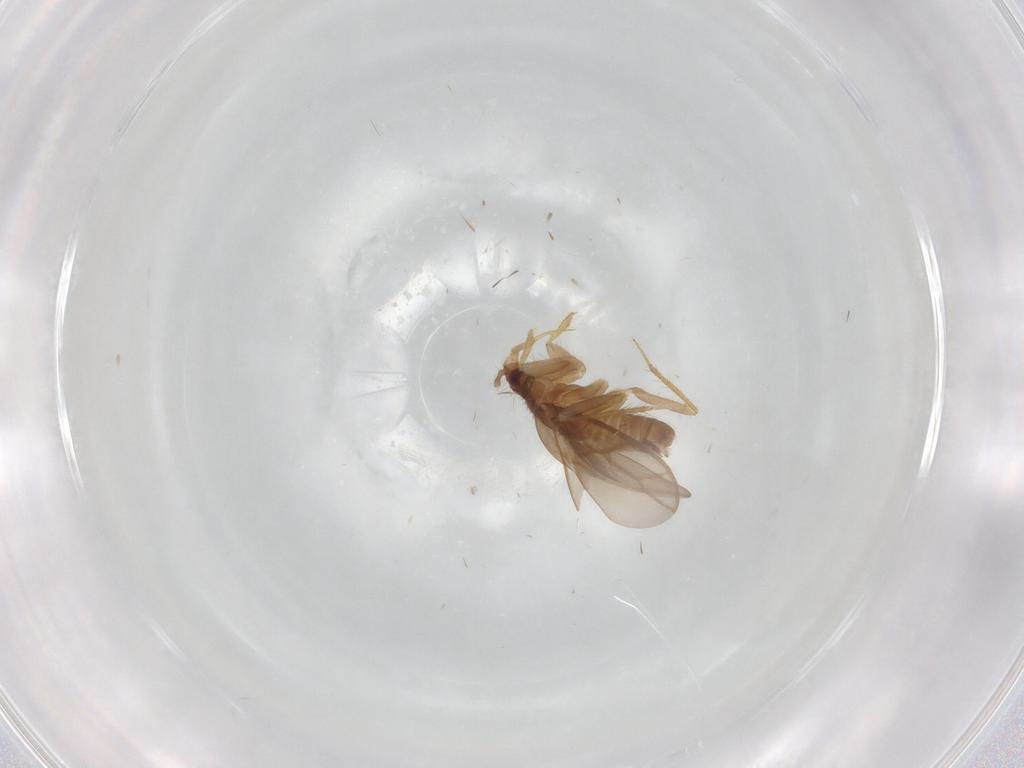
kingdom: Animalia
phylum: Arthropoda
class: Insecta
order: Hemiptera
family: Ceratocombidae
